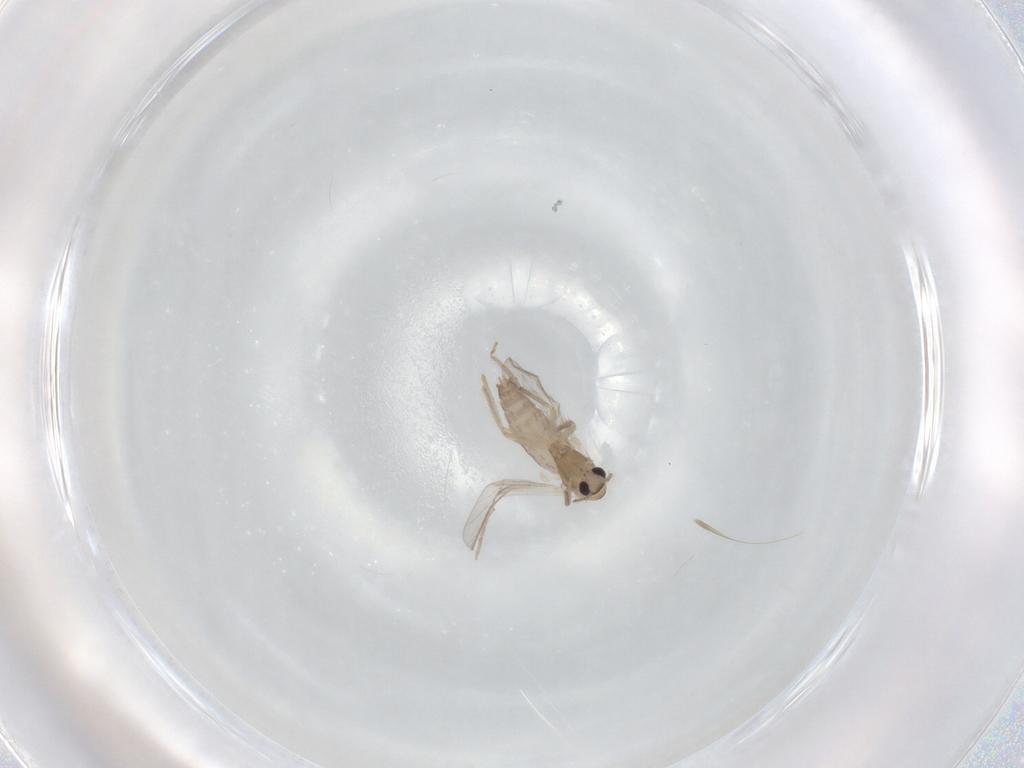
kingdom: Animalia
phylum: Arthropoda
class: Insecta
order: Diptera
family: Chironomidae
